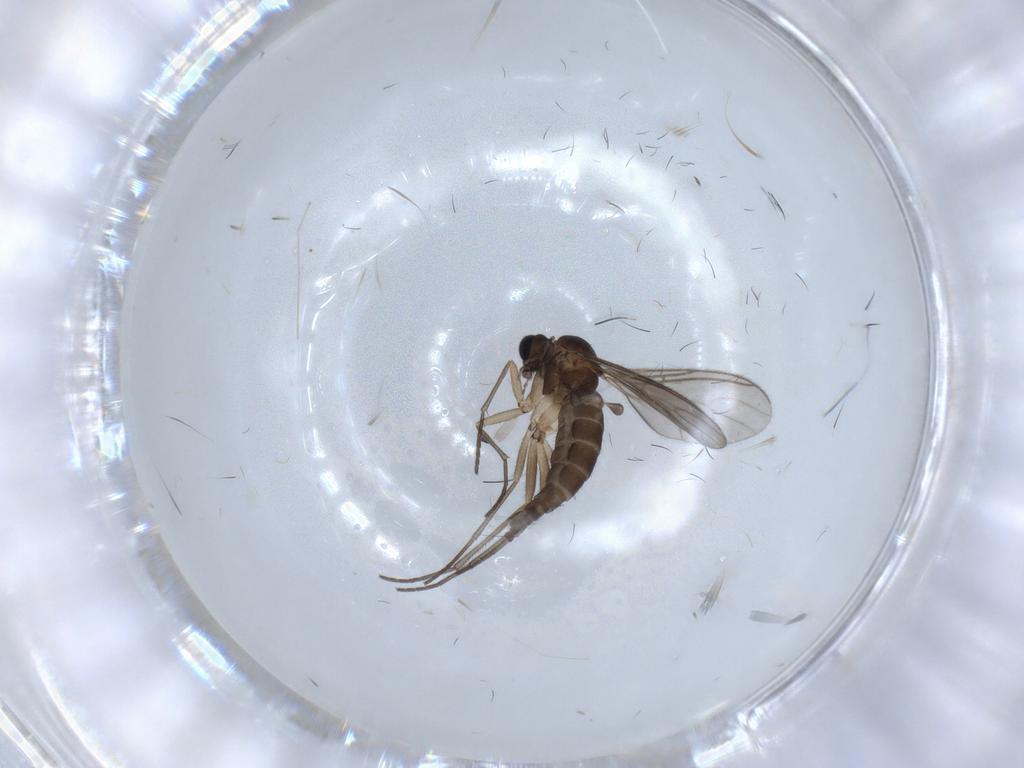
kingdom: Animalia
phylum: Arthropoda
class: Insecta
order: Diptera
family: Sciaridae
